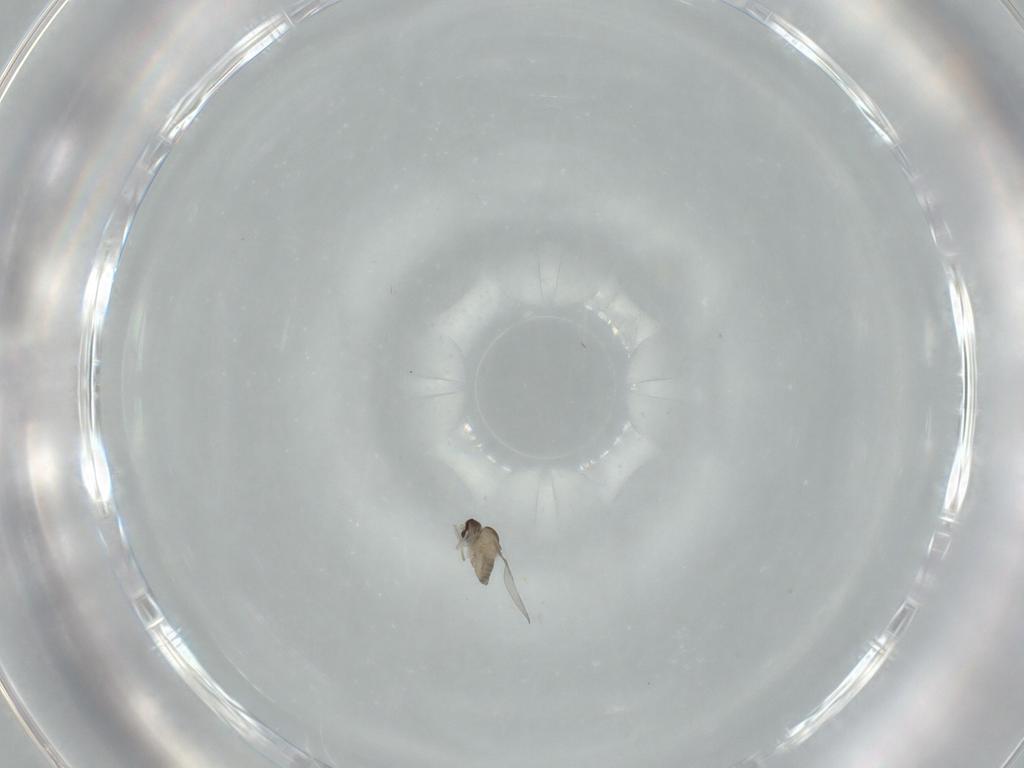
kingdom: Animalia
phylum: Arthropoda
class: Insecta
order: Diptera
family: Cecidomyiidae
